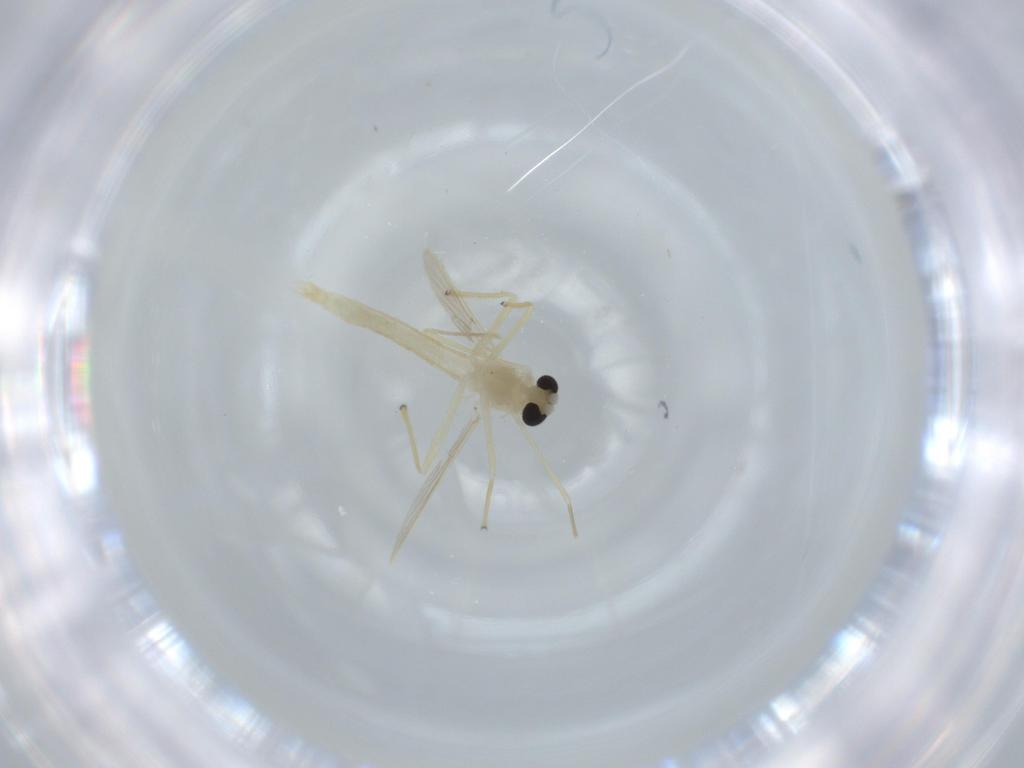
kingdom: Animalia
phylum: Arthropoda
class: Insecta
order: Diptera
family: Chironomidae
